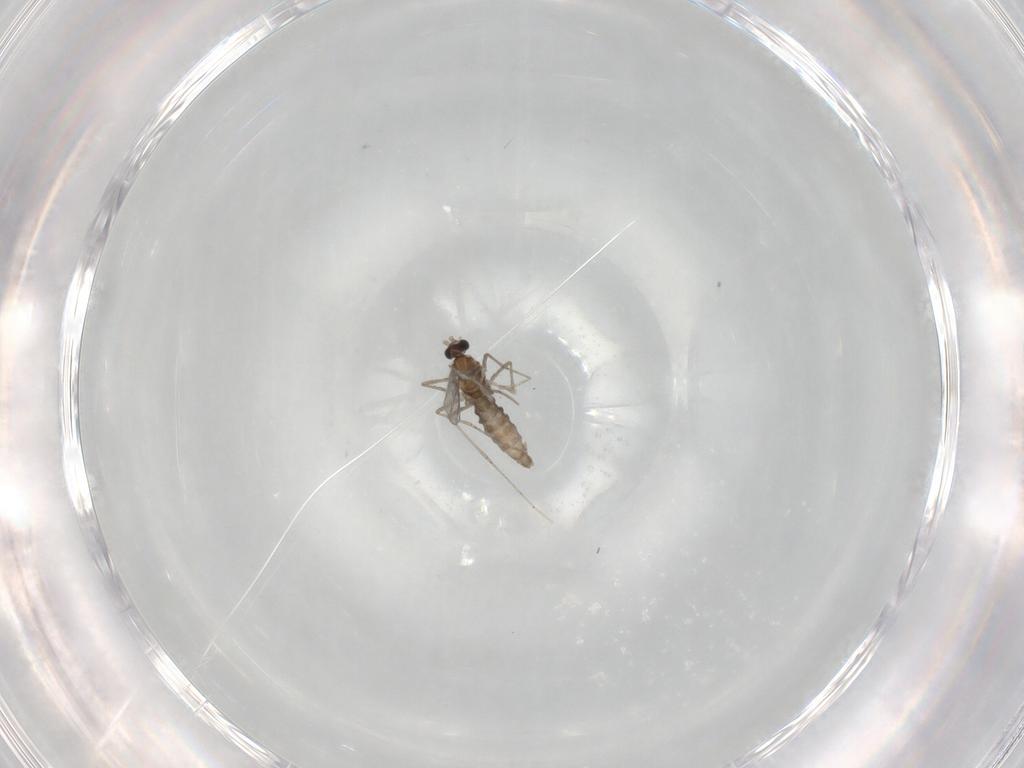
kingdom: Animalia
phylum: Arthropoda
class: Insecta
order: Diptera
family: Cecidomyiidae
